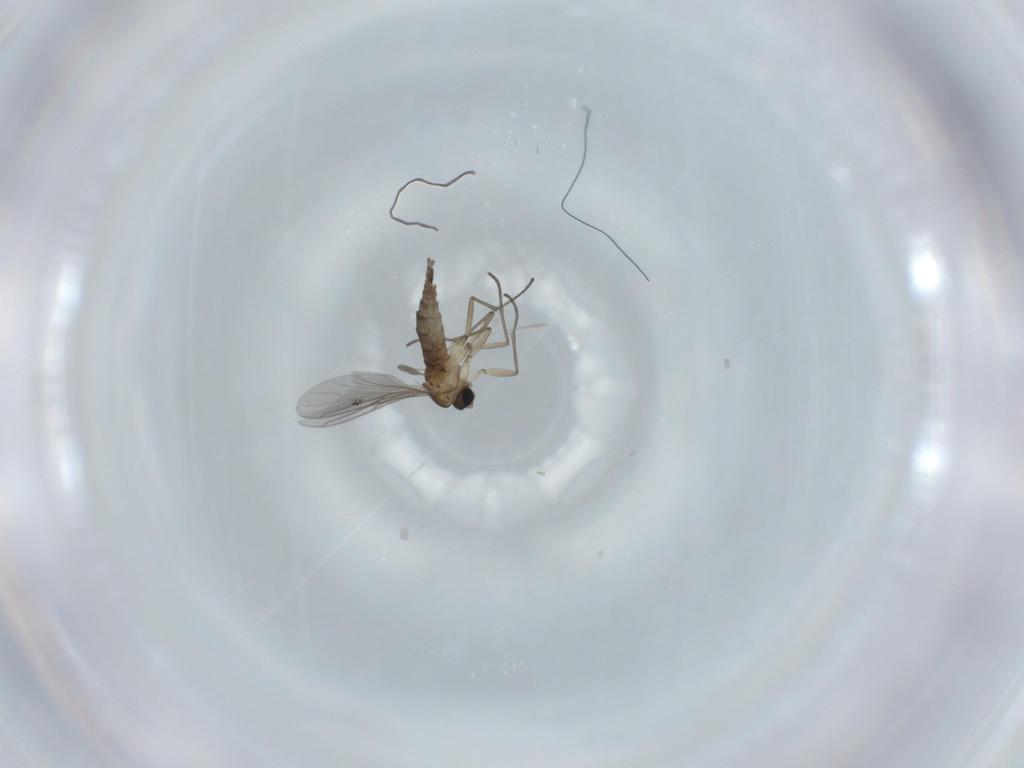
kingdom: Animalia
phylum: Arthropoda
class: Insecta
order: Diptera
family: Sciaridae
